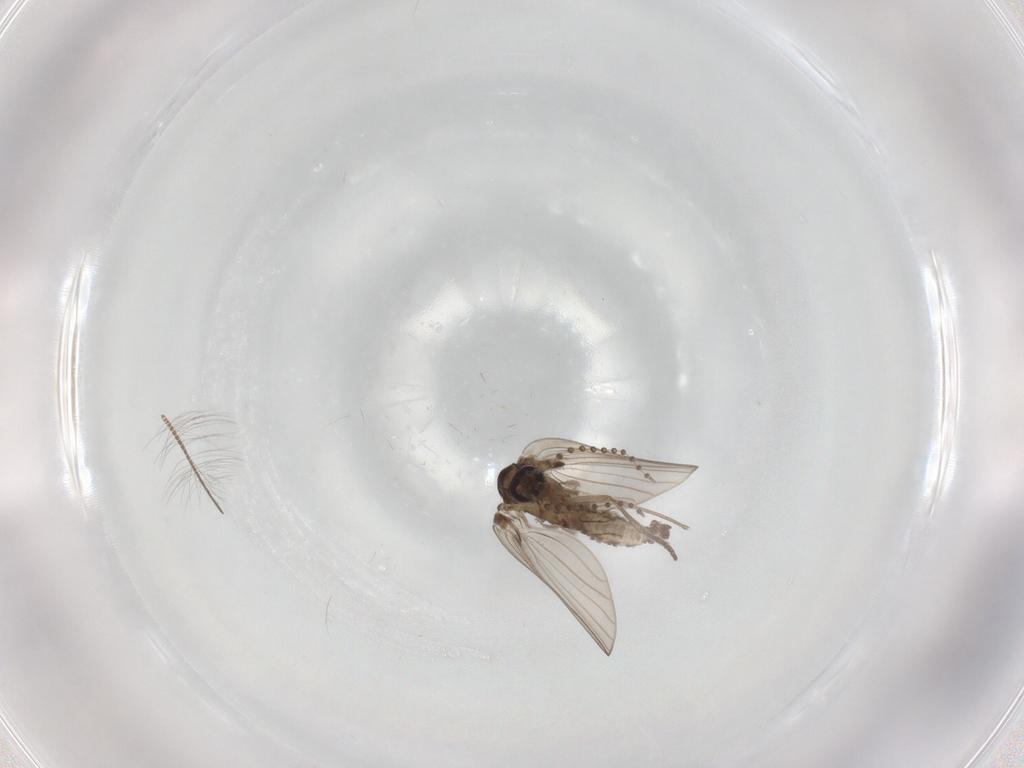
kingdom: Animalia
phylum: Arthropoda
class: Insecta
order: Diptera
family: Psychodidae
